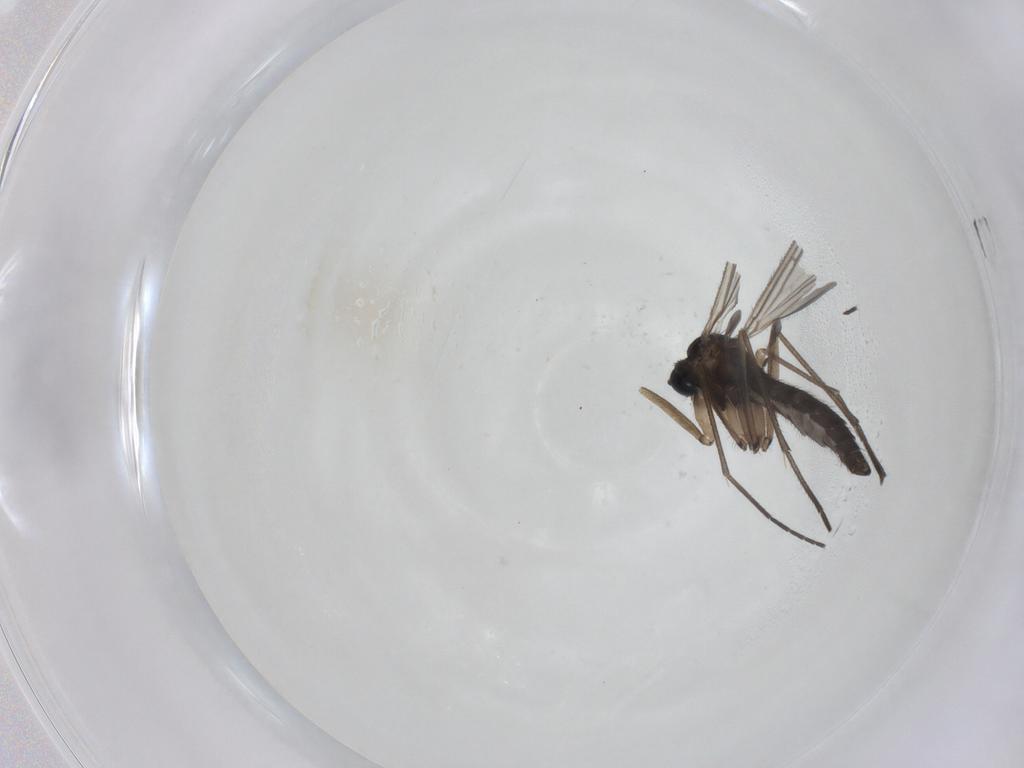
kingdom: Animalia
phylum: Arthropoda
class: Insecta
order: Diptera
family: Sciaridae
